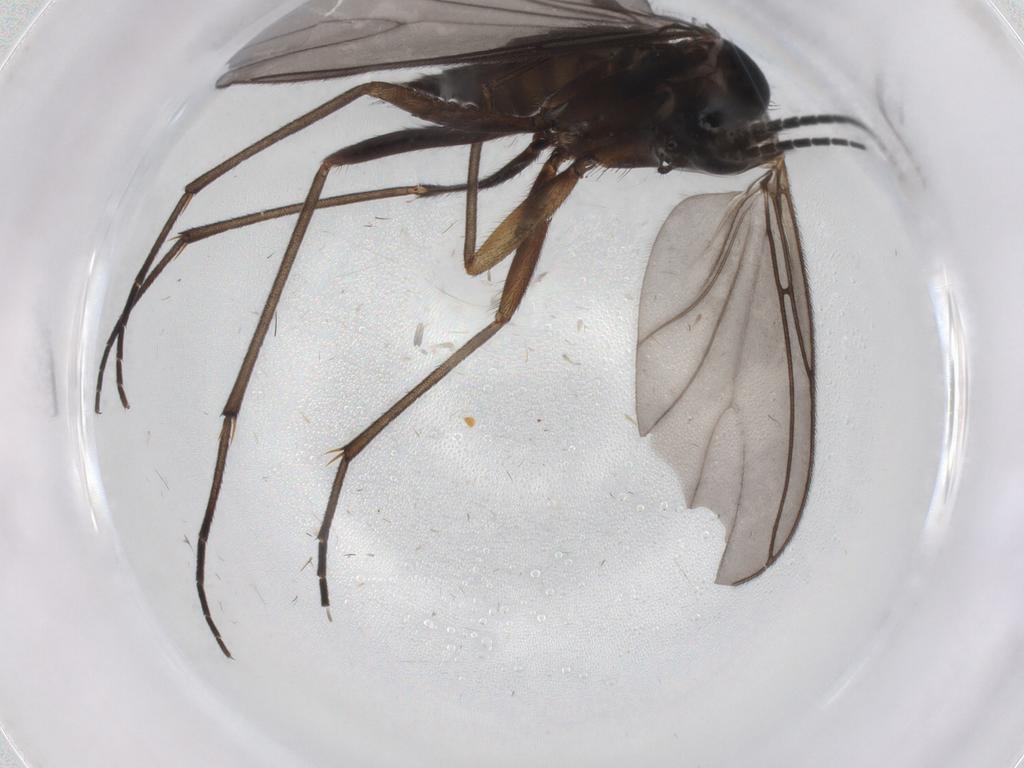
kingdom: Animalia
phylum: Arthropoda
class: Insecta
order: Diptera
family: Sciaridae
